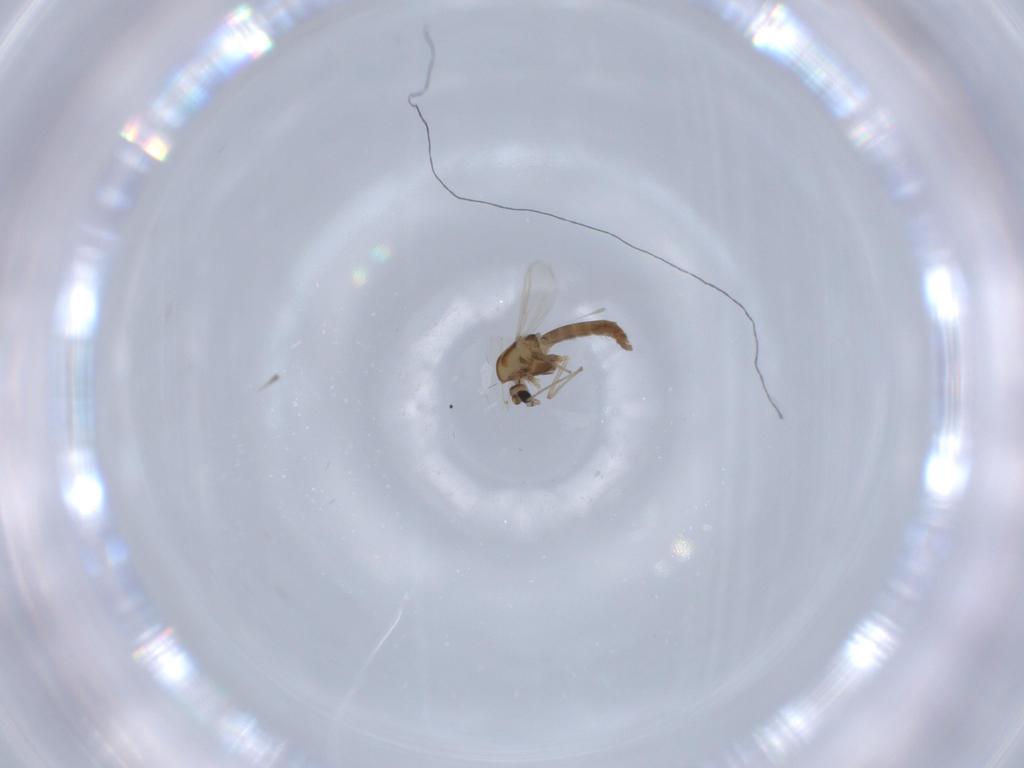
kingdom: Animalia
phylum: Arthropoda
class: Insecta
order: Diptera
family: Chironomidae
